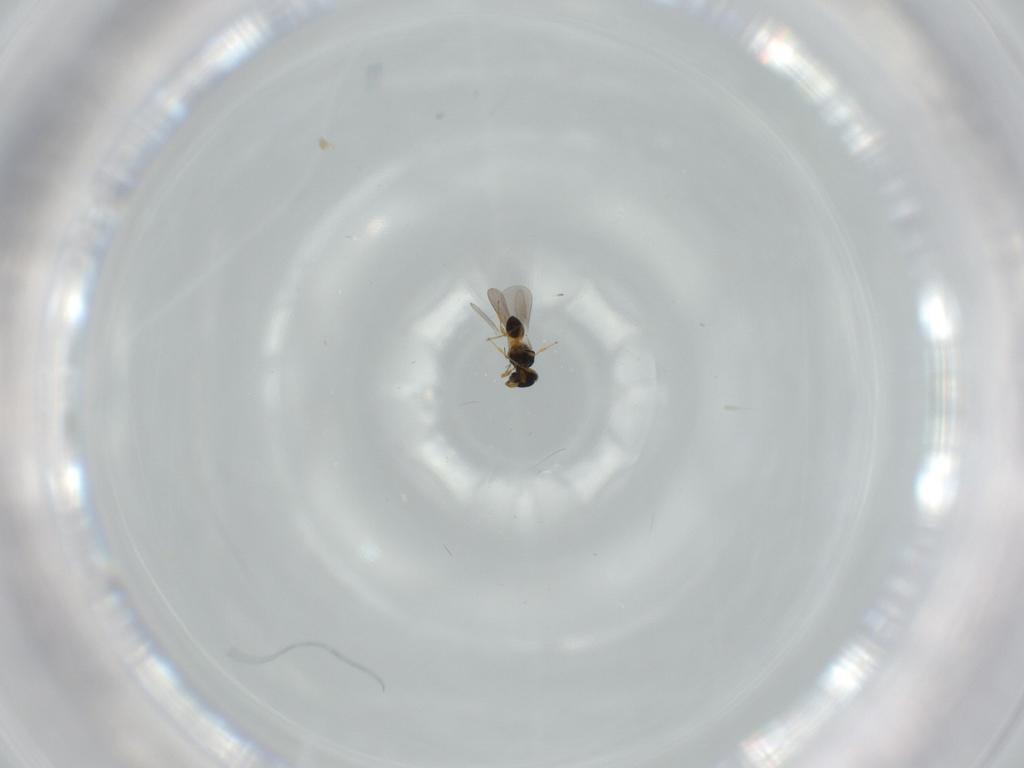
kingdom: Animalia
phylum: Arthropoda
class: Insecta
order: Hymenoptera
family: Platygastridae
